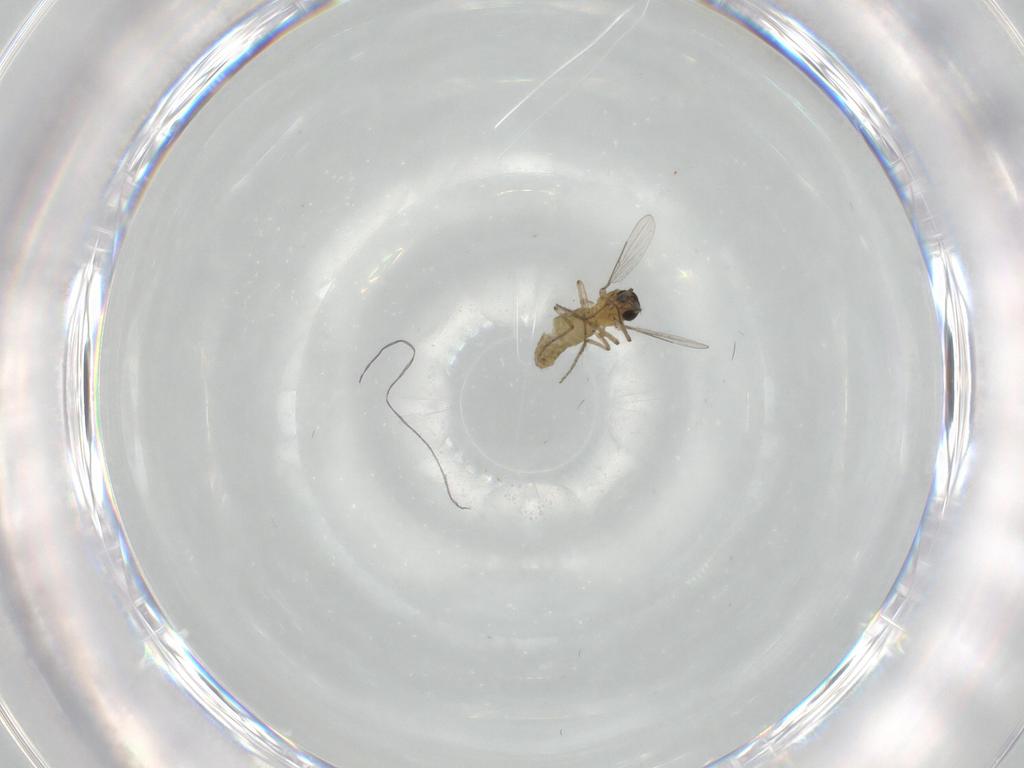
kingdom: Animalia
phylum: Arthropoda
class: Insecta
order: Diptera
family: Ceratopogonidae
